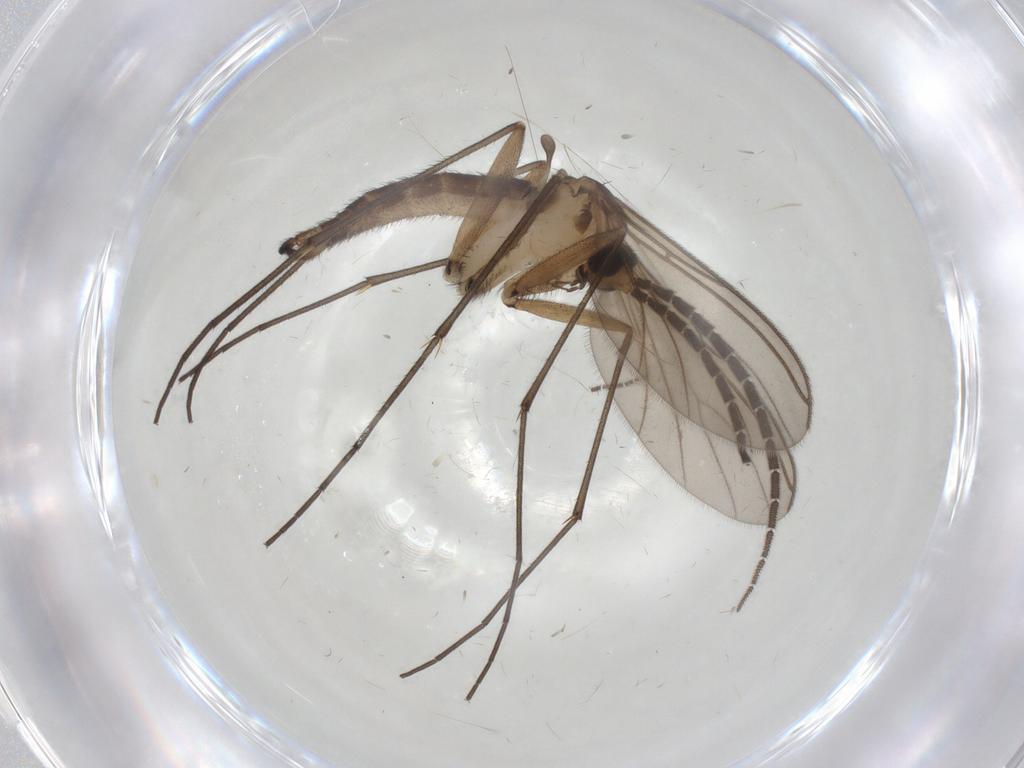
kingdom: Animalia
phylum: Arthropoda
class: Insecta
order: Diptera
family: Sciaridae
